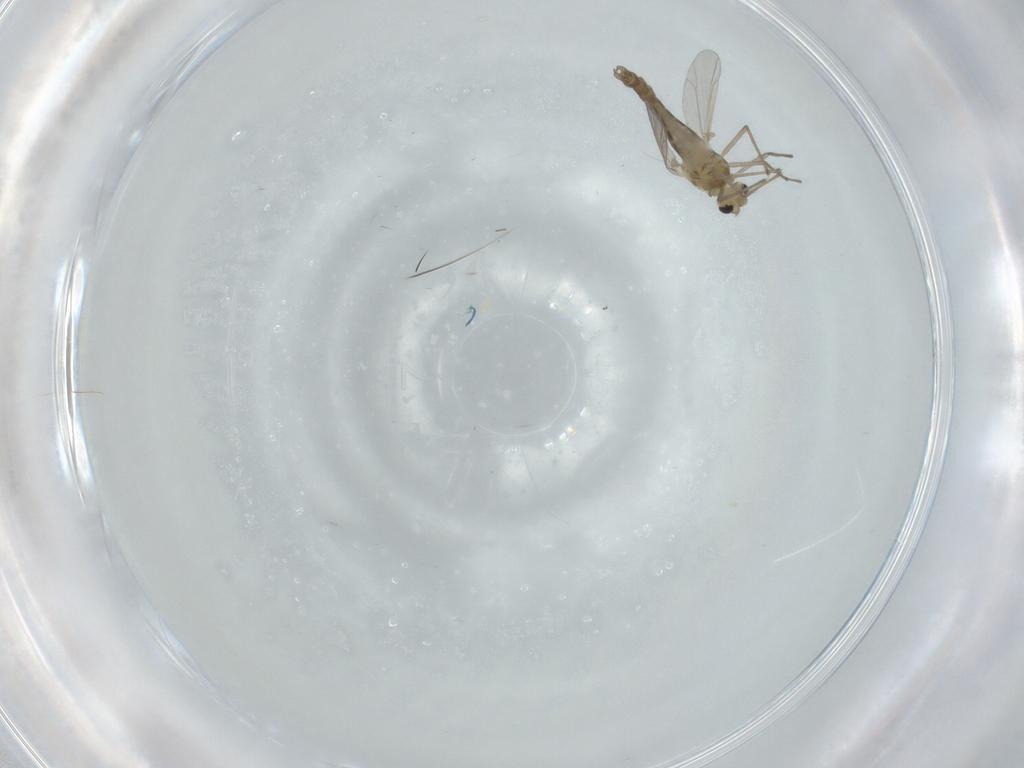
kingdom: Animalia
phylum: Arthropoda
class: Insecta
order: Diptera
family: Chironomidae
